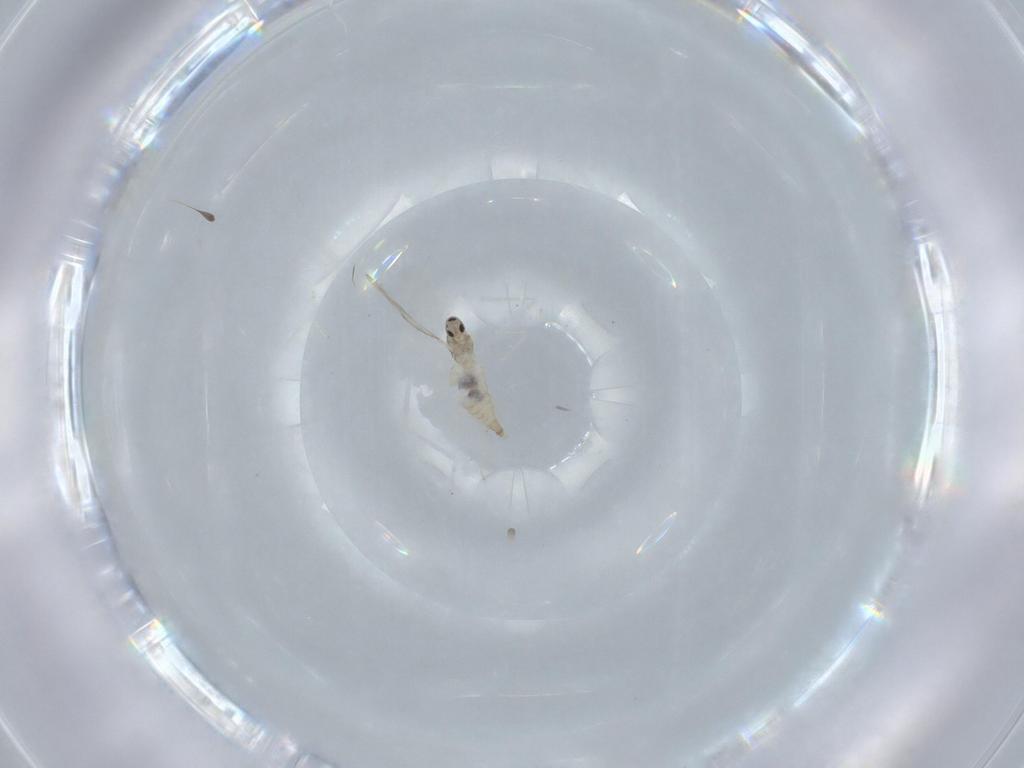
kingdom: Animalia
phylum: Arthropoda
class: Insecta
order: Diptera
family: Cecidomyiidae
